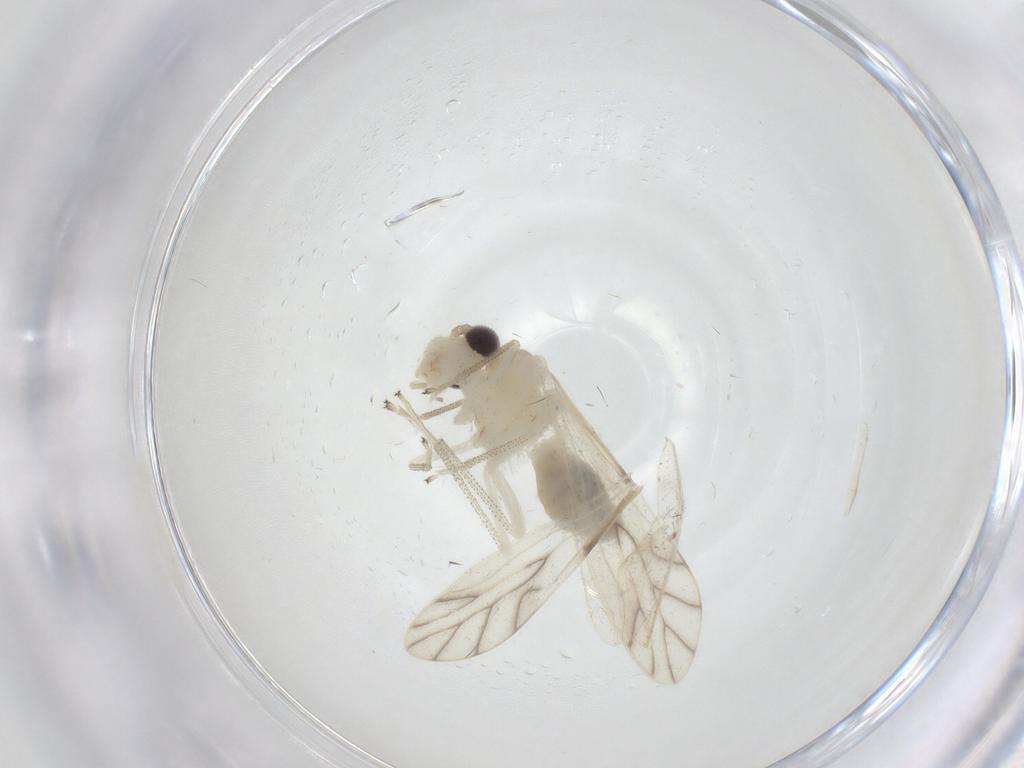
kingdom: Animalia
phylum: Arthropoda
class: Insecta
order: Psocodea
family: Caeciliusidae
